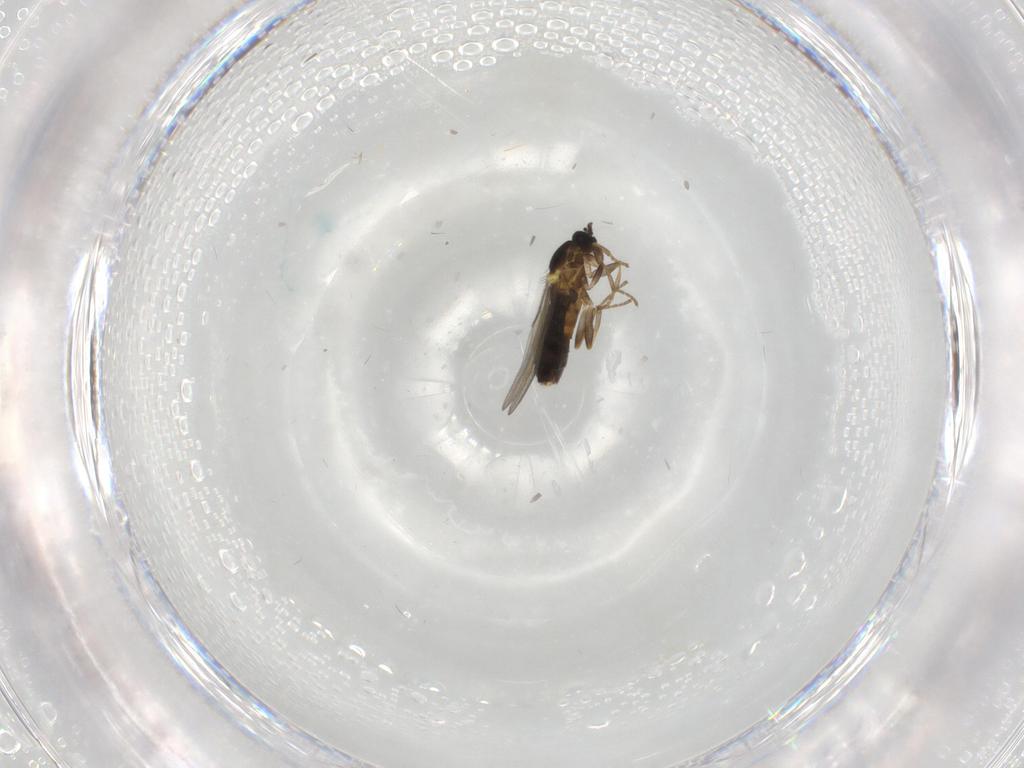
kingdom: Animalia
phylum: Arthropoda
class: Insecta
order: Diptera
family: Scatopsidae
